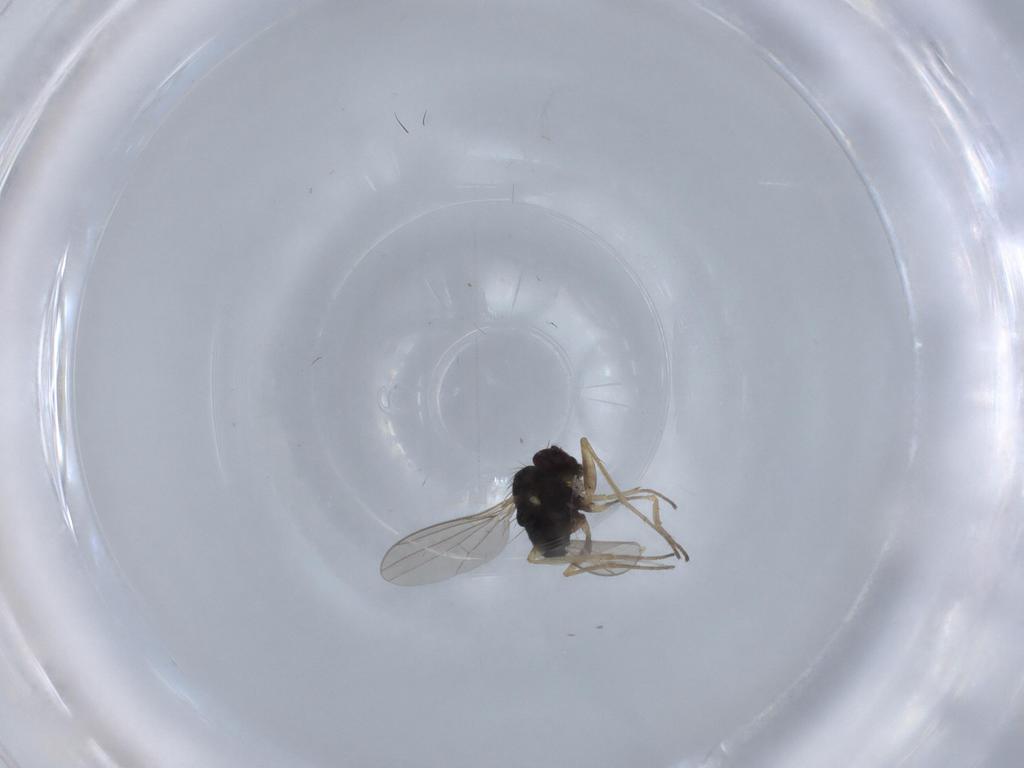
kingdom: Animalia
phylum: Arthropoda
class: Insecta
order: Diptera
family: Dolichopodidae
